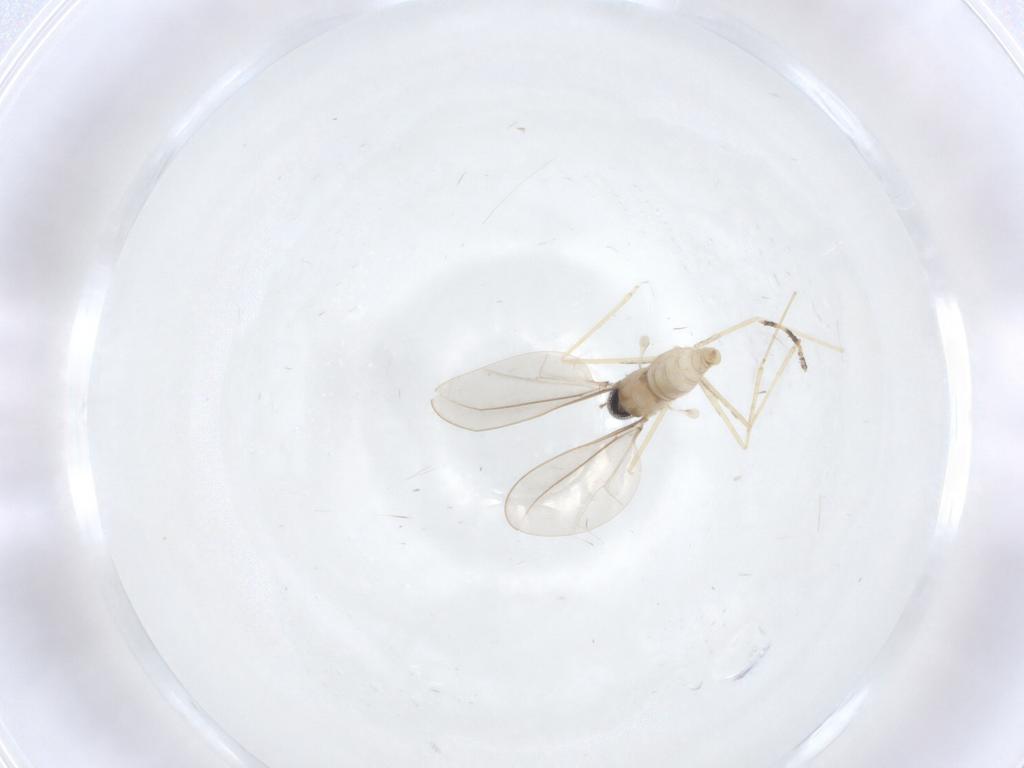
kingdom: Animalia
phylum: Arthropoda
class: Insecta
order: Diptera
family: Cecidomyiidae
